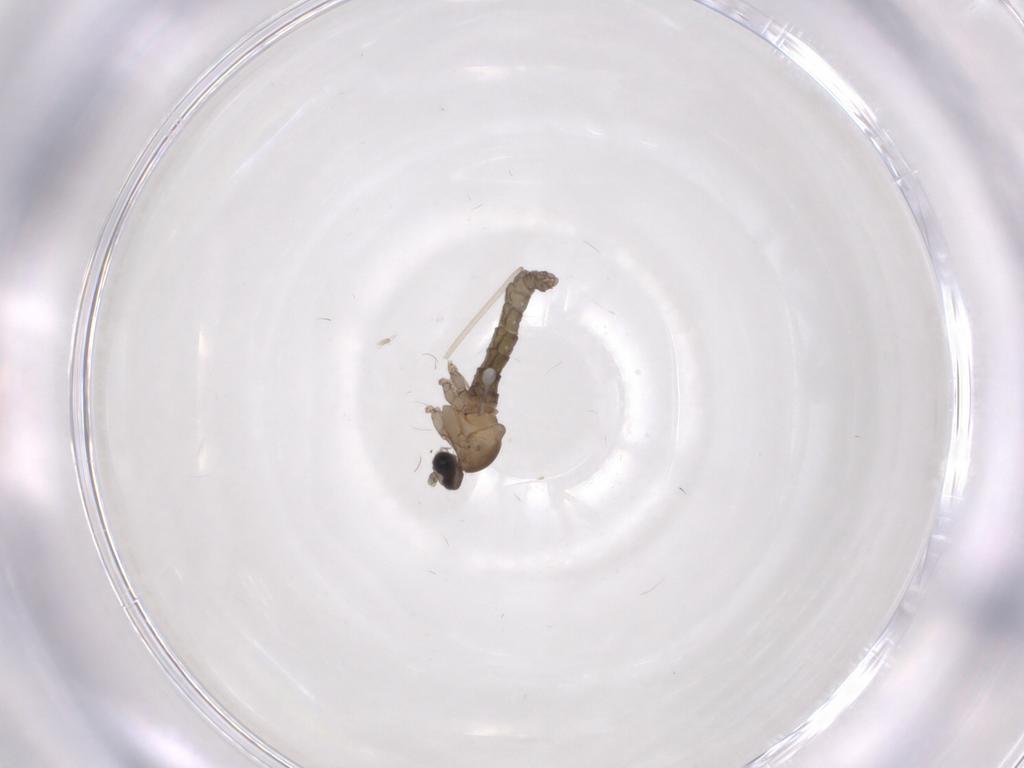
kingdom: Animalia
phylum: Arthropoda
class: Insecta
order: Diptera
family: Cecidomyiidae
